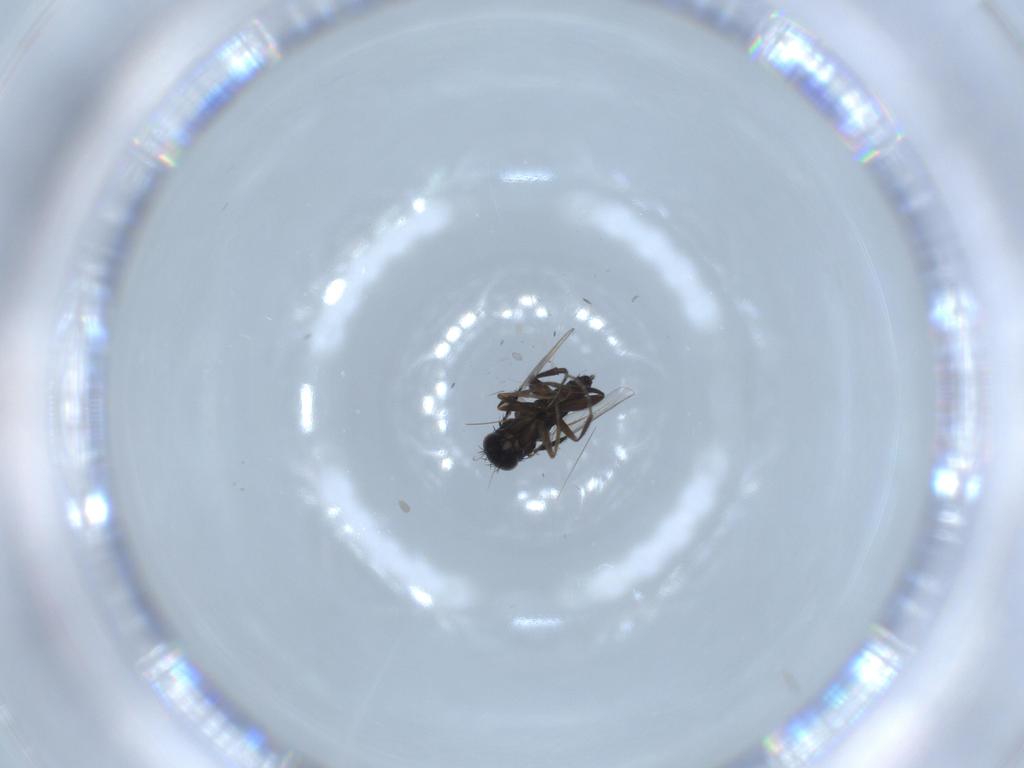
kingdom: Animalia
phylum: Arthropoda
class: Insecta
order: Diptera
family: Phoridae
